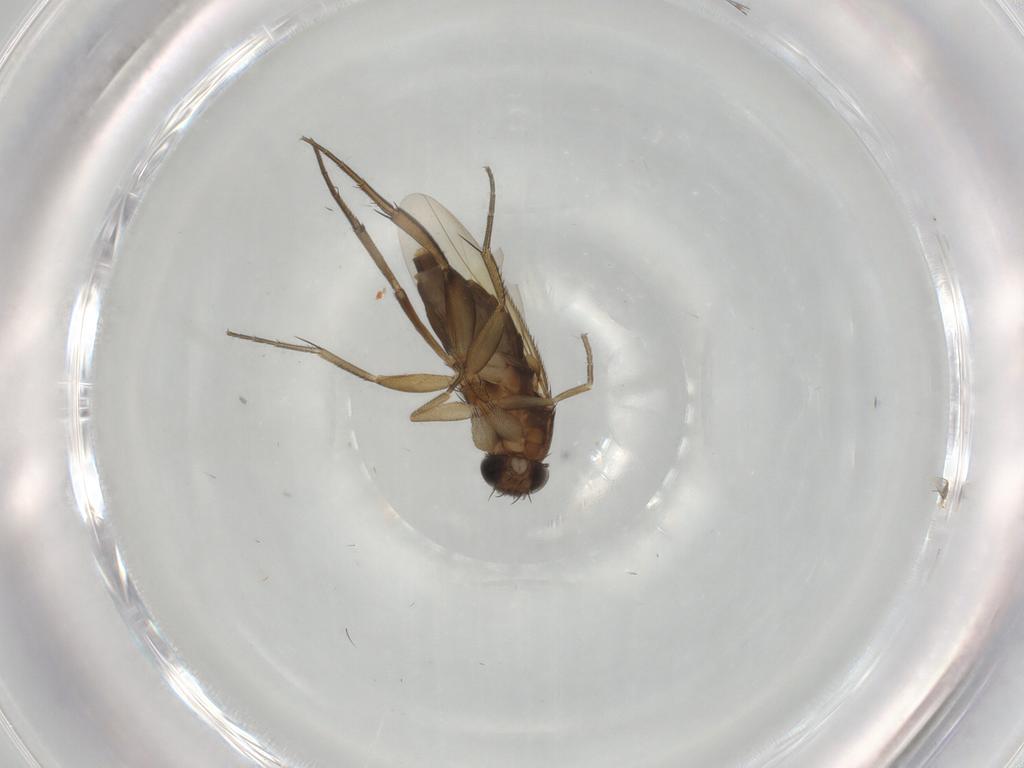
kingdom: Animalia
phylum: Arthropoda
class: Insecta
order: Diptera
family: Phoridae
